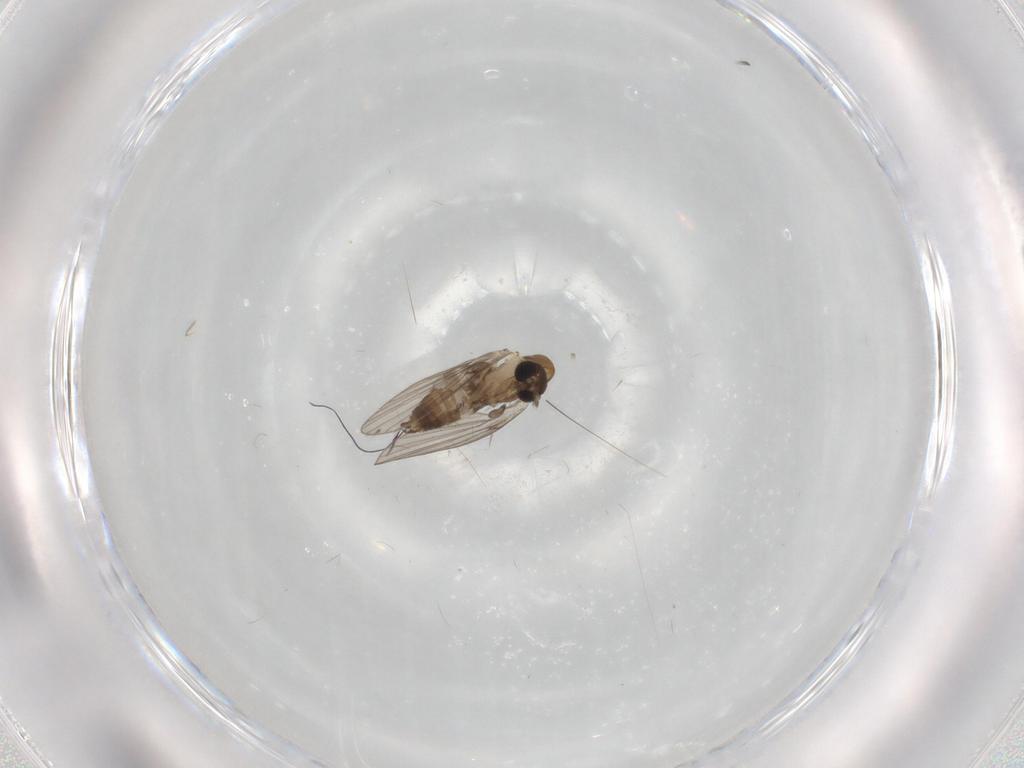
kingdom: Animalia
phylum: Arthropoda
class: Insecta
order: Diptera
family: Psychodidae
